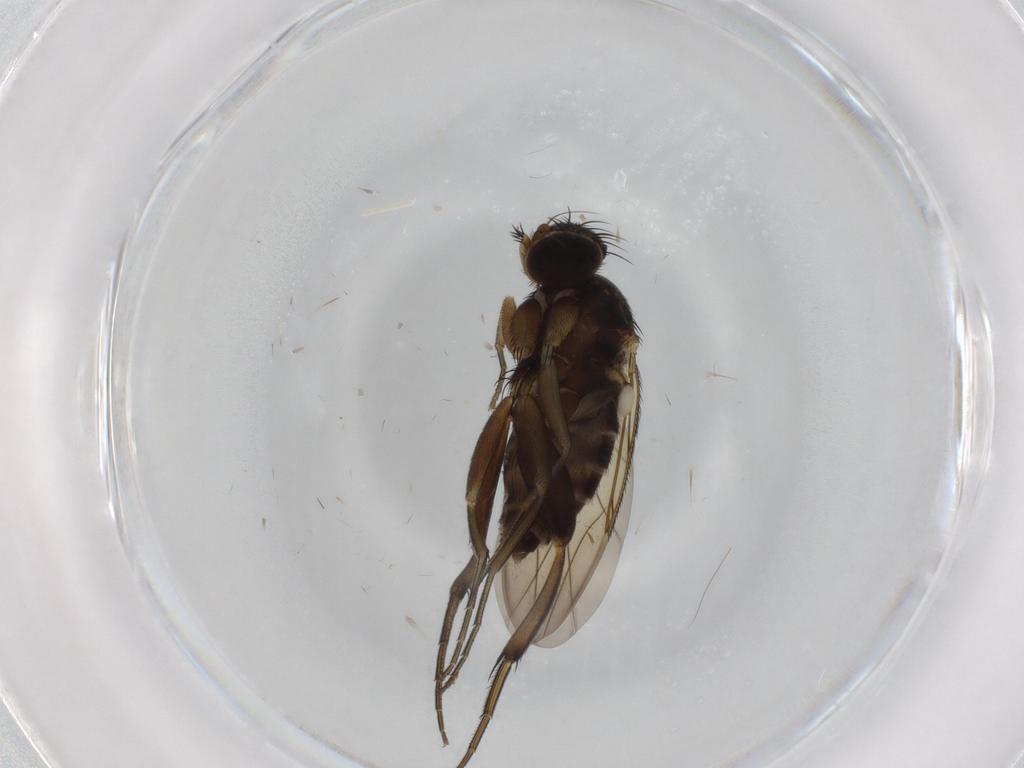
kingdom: Animalia
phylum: Arthropoda
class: Insecta
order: Diptera
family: Phoridae
